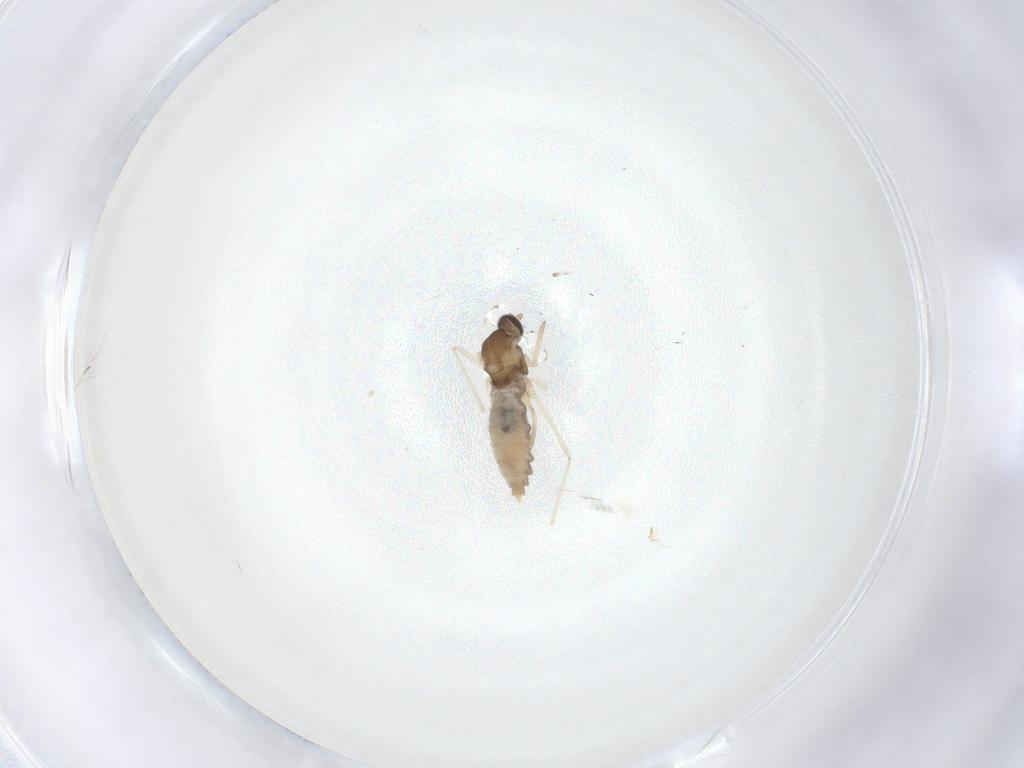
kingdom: Animalia
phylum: Arthropoda
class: Insecta
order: Diptera
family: Cecidomyiidae
